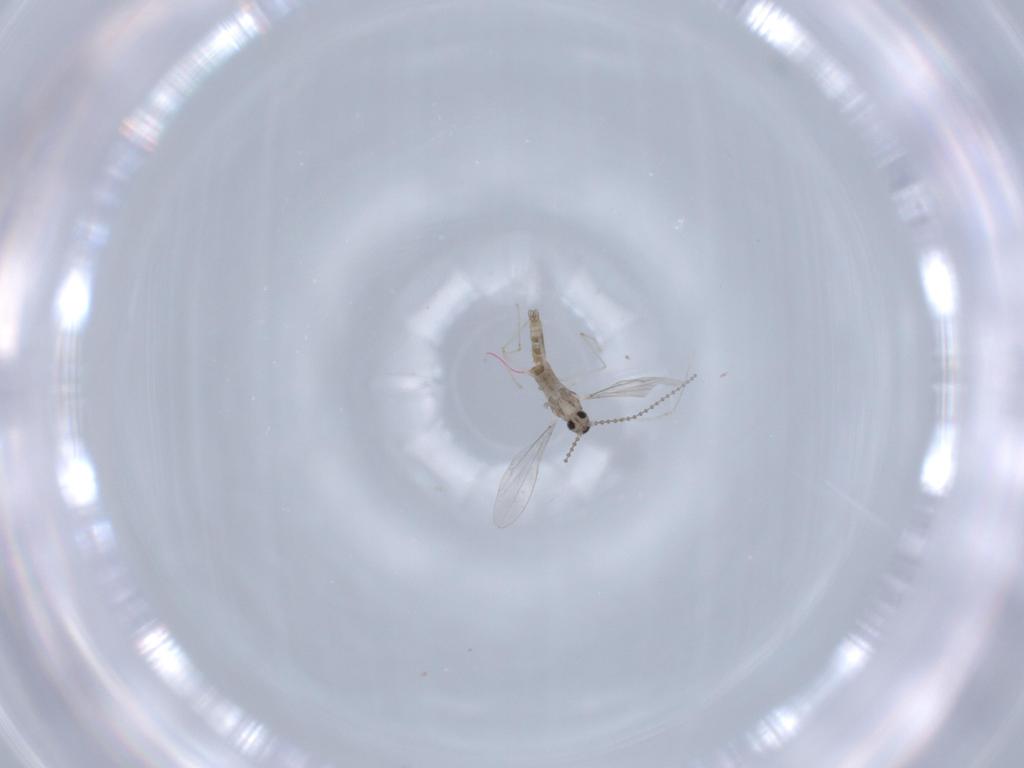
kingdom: Animalia
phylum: Arthropoda
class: Insecta
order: Diptera
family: Cecidomyiidae
